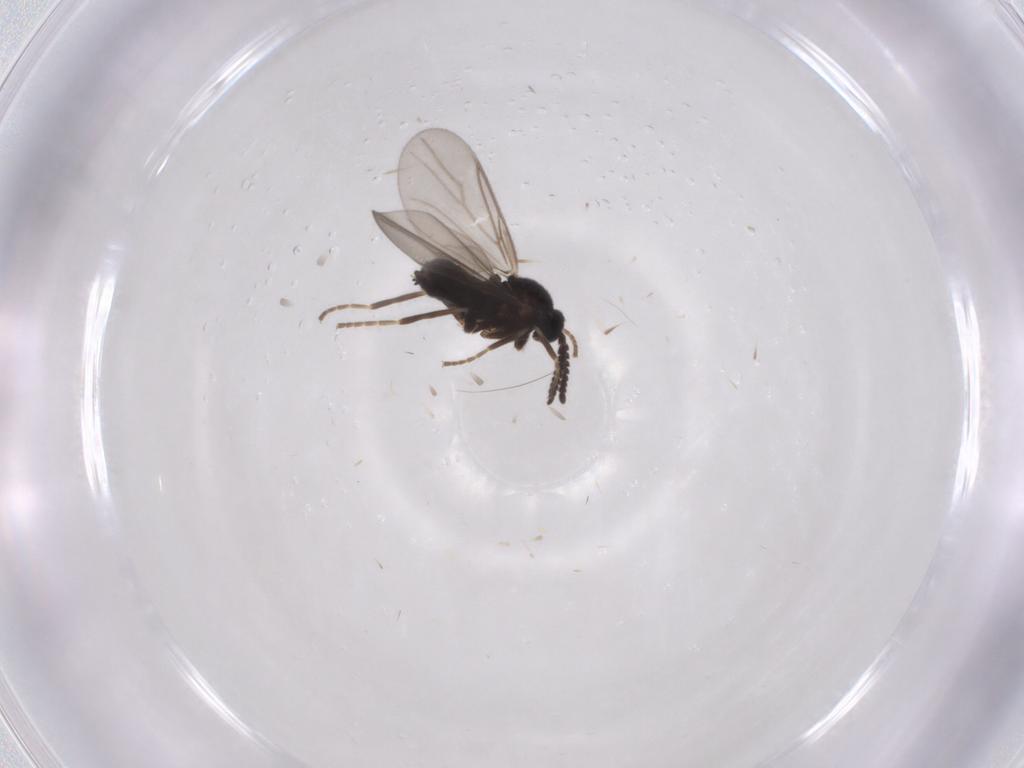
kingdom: Animalia
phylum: Arthropoda
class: Insecta
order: Diptera
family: Scatopsidae
